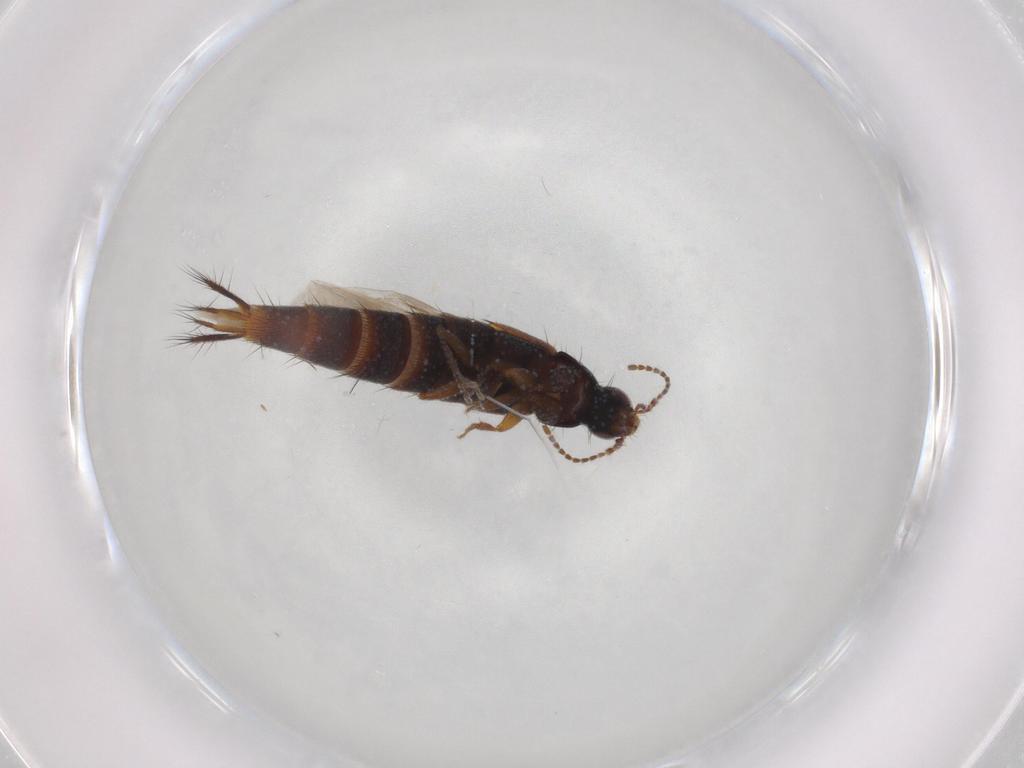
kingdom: Animalia
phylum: Arthropoda
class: Insecta
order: Coleoptera
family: Staphylinidae
